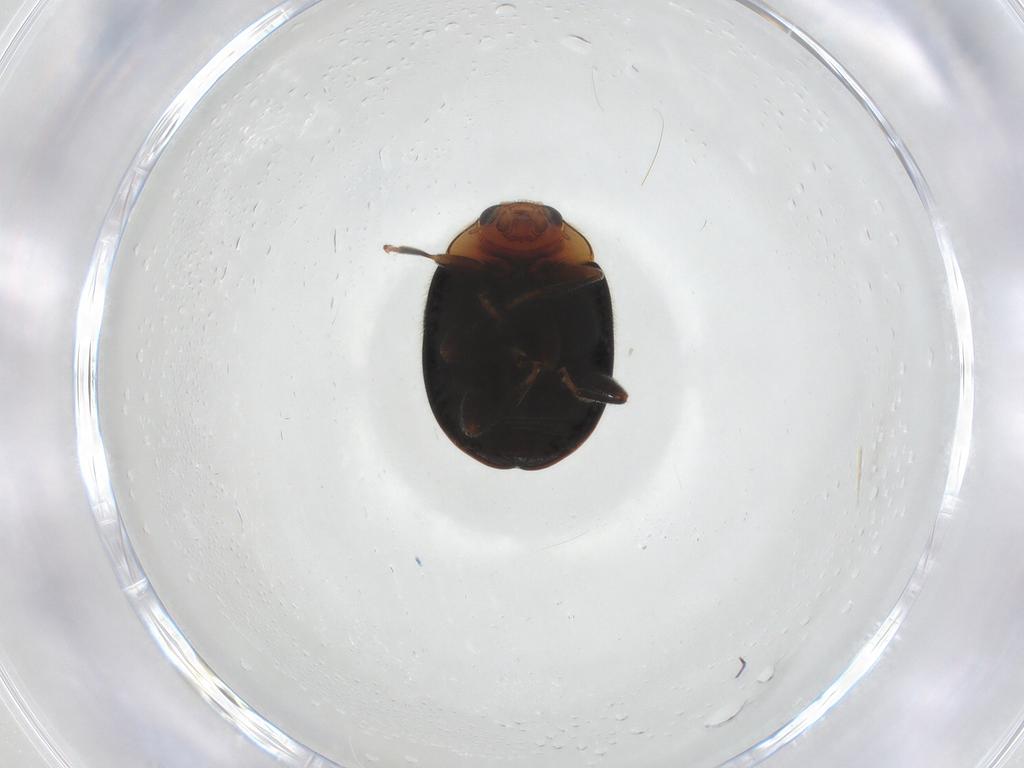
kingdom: Animalia
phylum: Arthropoda
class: Insecta
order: Coleoptera
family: Coccinellidae
